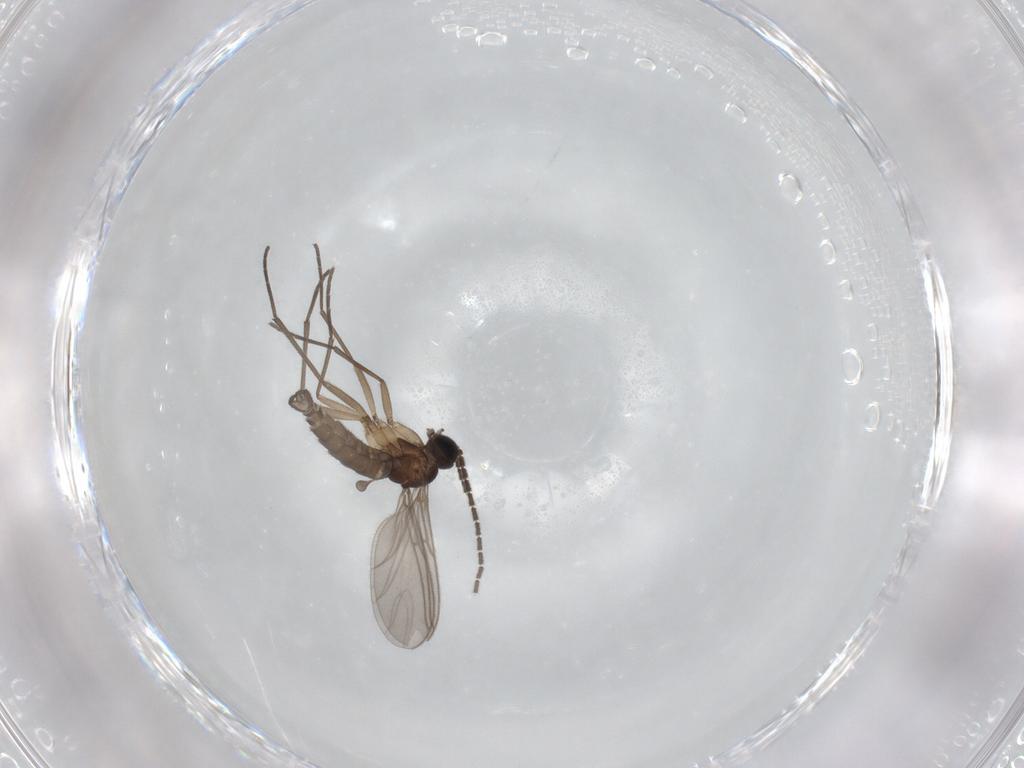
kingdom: Animalia
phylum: Arthropoda
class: Insecta
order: Diptera
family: Sciaridae
